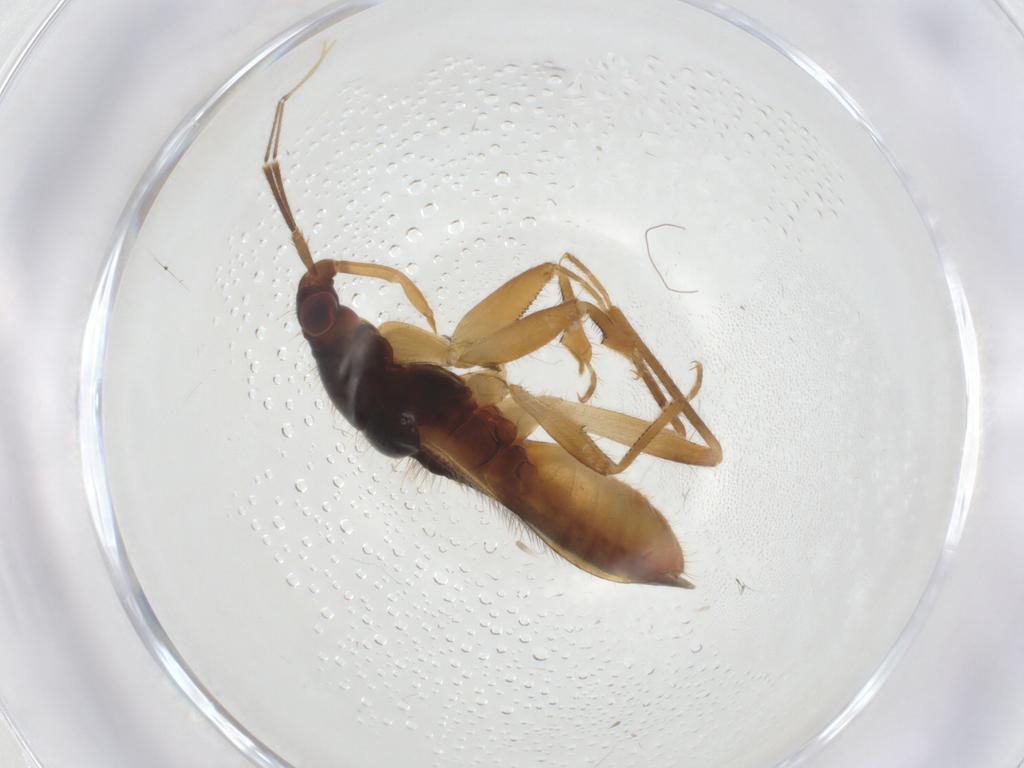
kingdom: Animalia
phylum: Arthropoda
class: Insecta
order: Hemiptera
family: Nabidae
